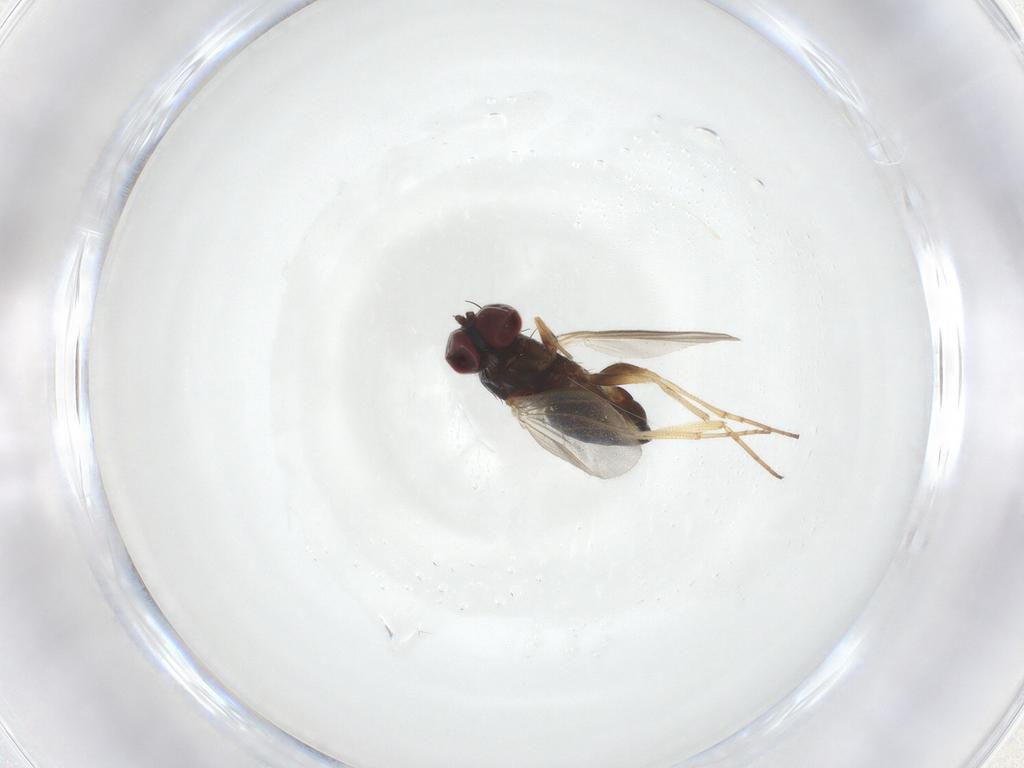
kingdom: Animalia
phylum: Arthropoda
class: Insecta
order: Diptera
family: Dolichopodidae
